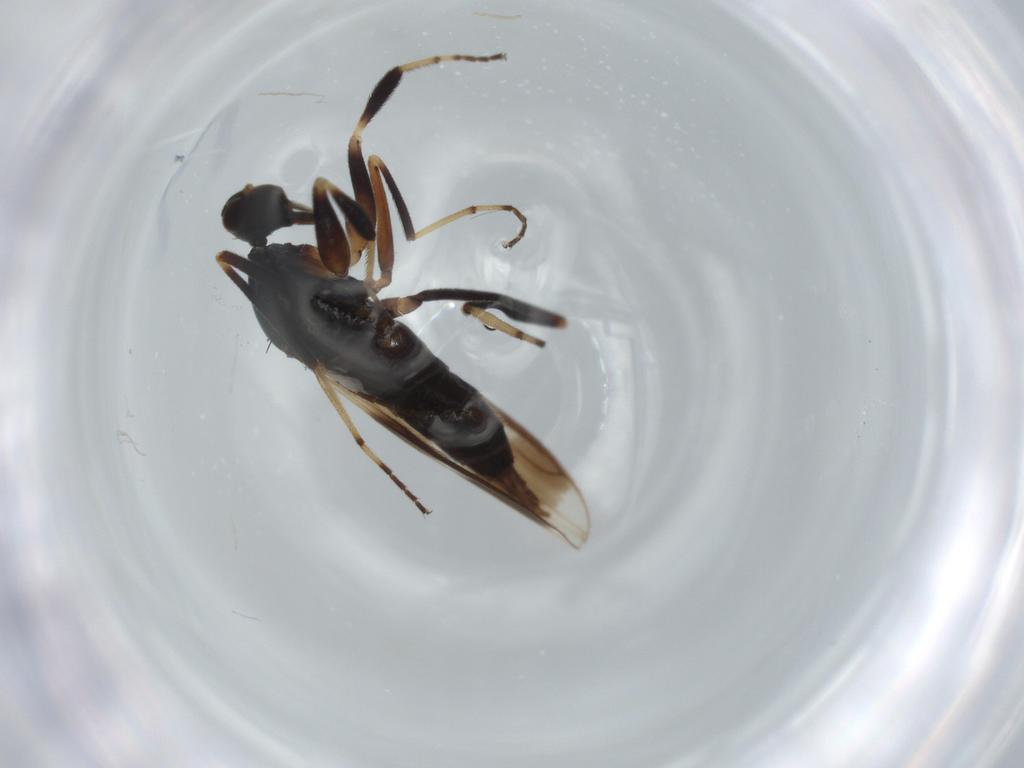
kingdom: Animalia
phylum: Arthropoda
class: Insecta
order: Diptera
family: Hybotidae
